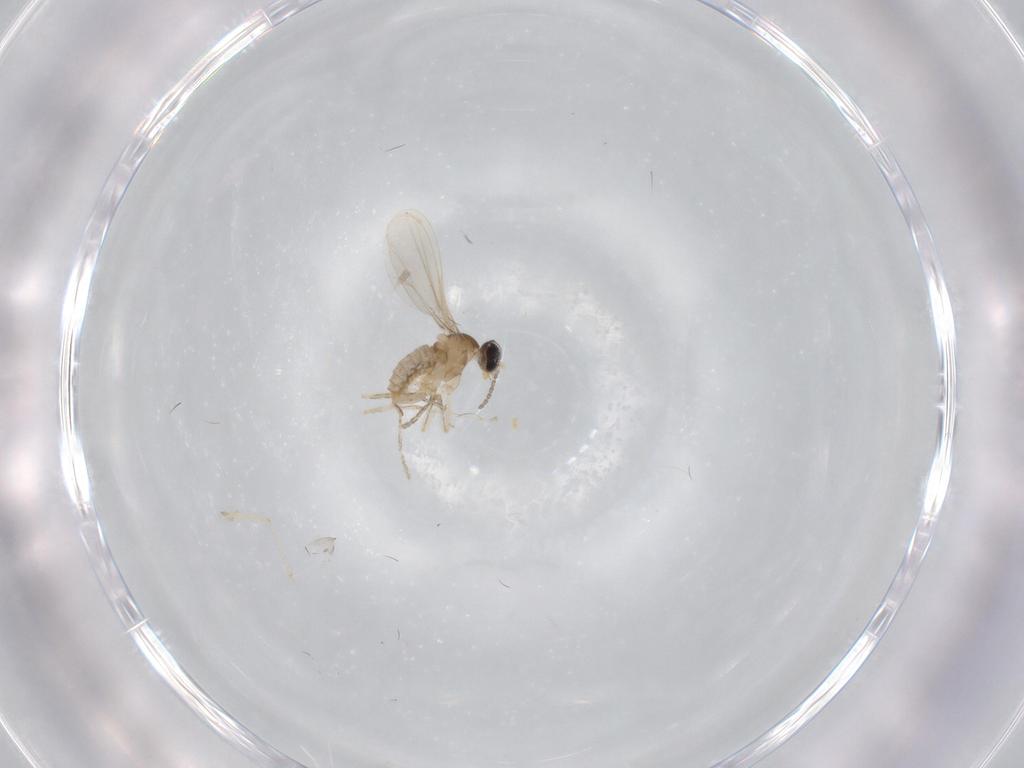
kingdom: Animalia
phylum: Arthropoda
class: Insecta
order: Diptera
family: Cecidomyiidae
